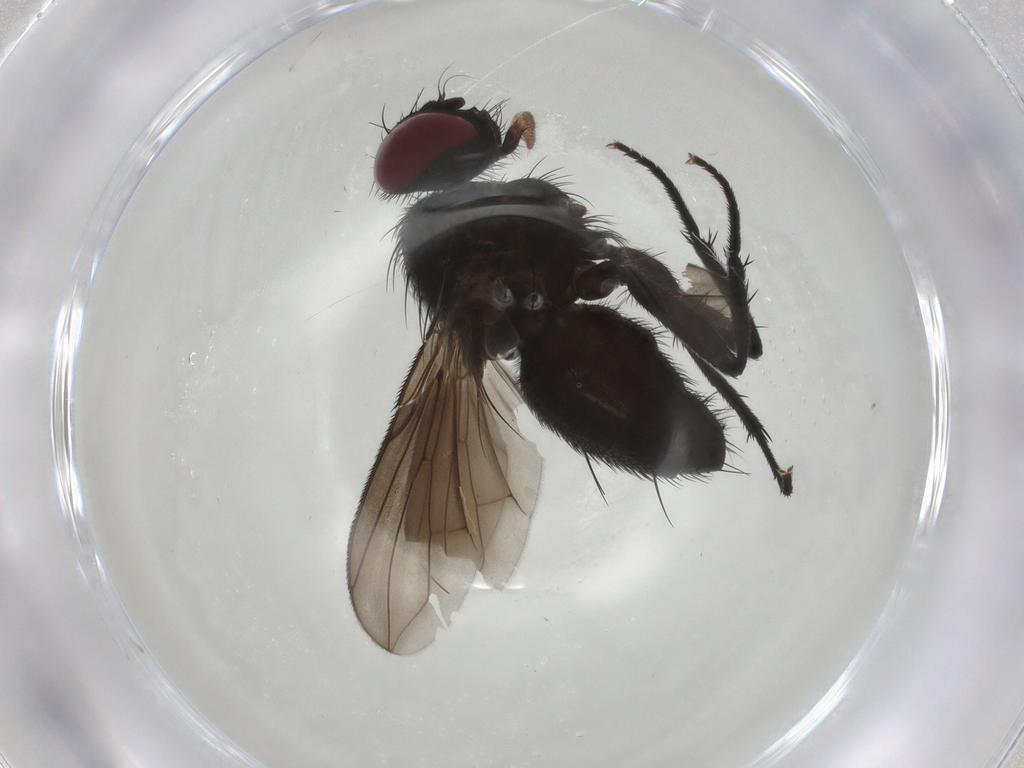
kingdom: Animalia
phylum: Arthropoda
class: Insecta
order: Diptera
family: Calliphoridae
